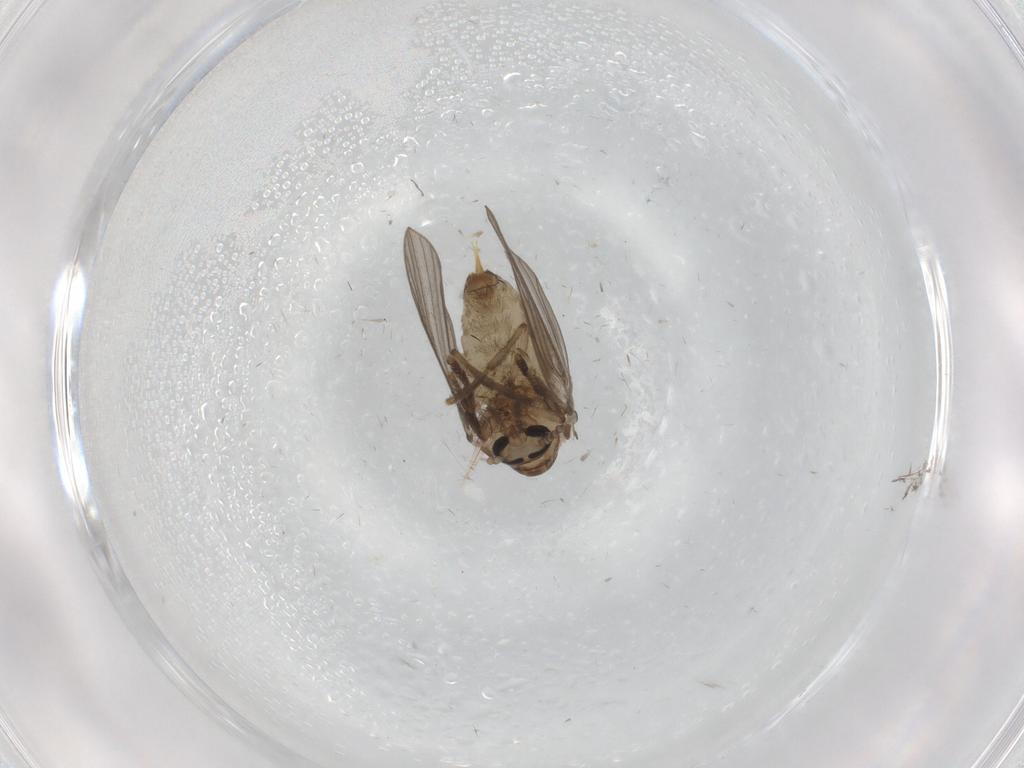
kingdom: Animalia
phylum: Arthropoda
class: Insecta
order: Diptera
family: Psychodidae
